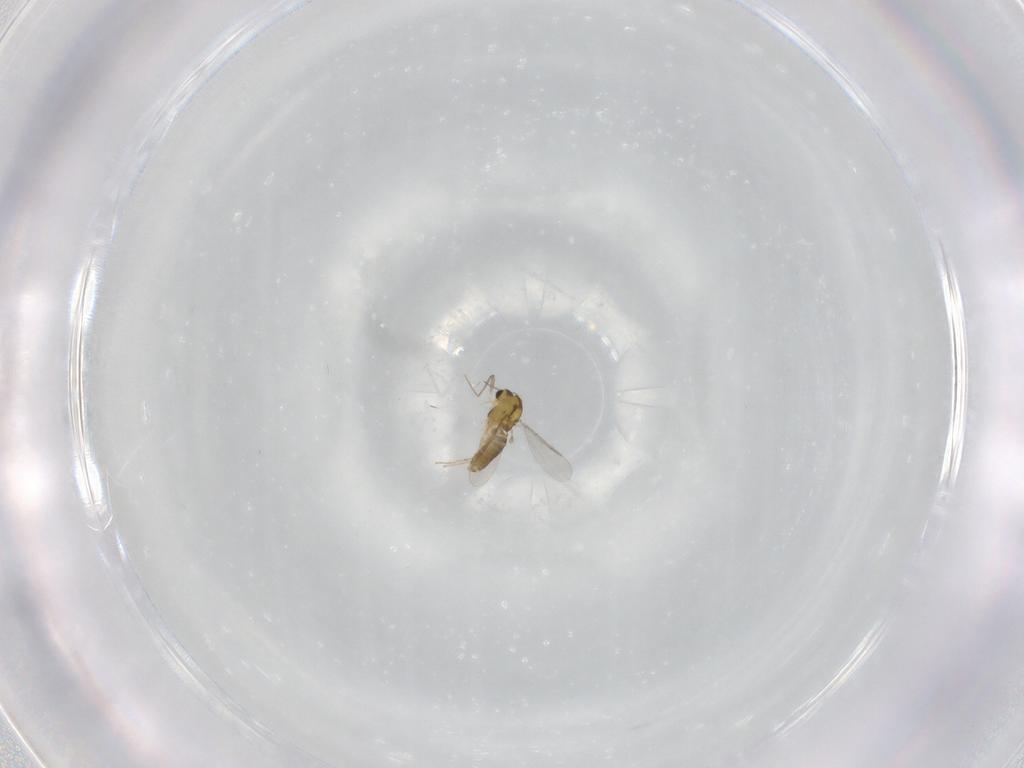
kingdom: Animalia
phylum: Arthropoda
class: Insecta
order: Diptera
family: Chironomidae
